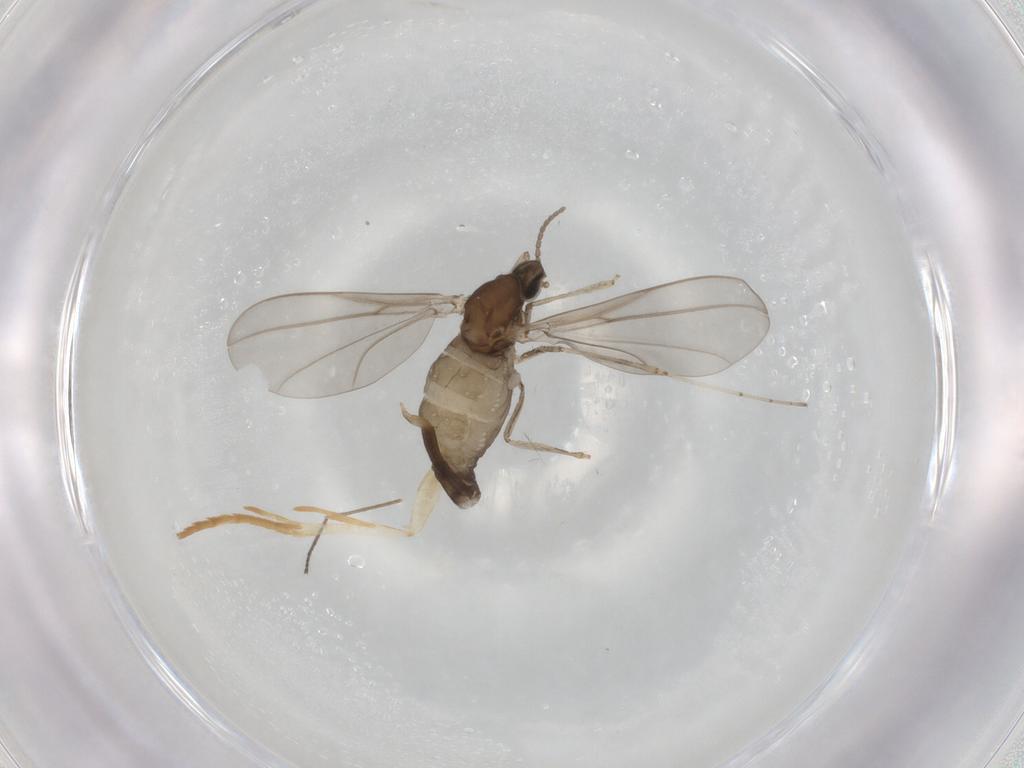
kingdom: Animalia
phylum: Arthropoda
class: Insecta
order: Diptera
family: Cecidomyiidae
